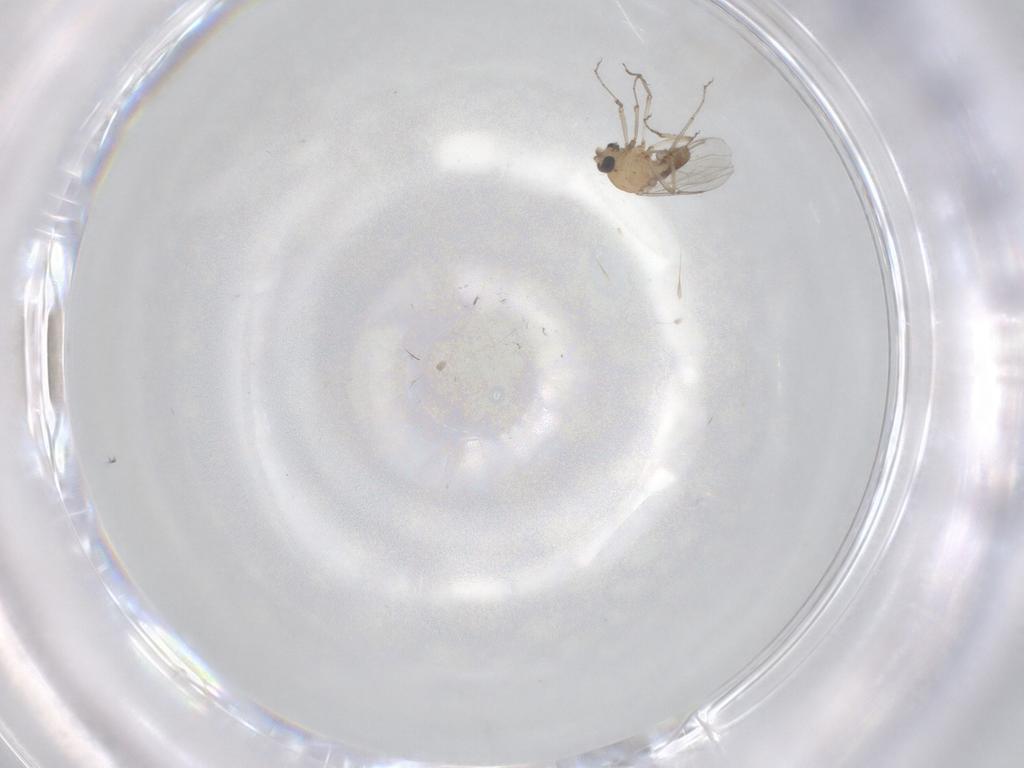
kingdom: Animalia
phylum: Arthropoda
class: Insecta
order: Diptera
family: Ceratopogonidae
